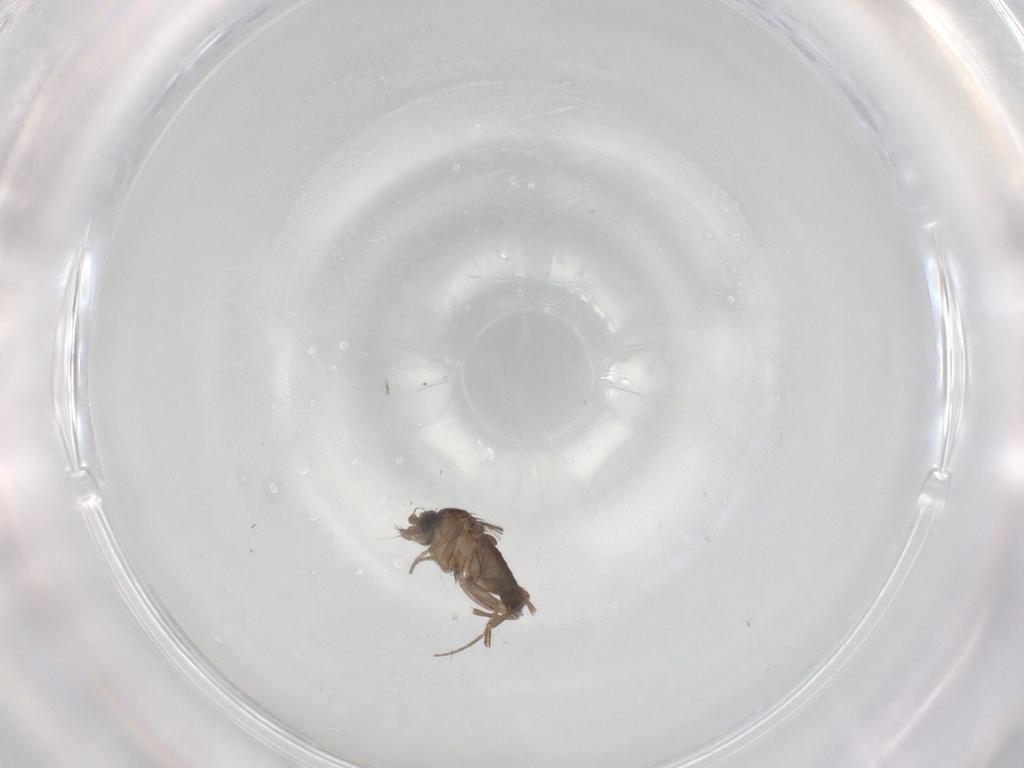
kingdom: Animalia
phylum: Arthropoda
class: Insecta
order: Diptera
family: Phoridae
